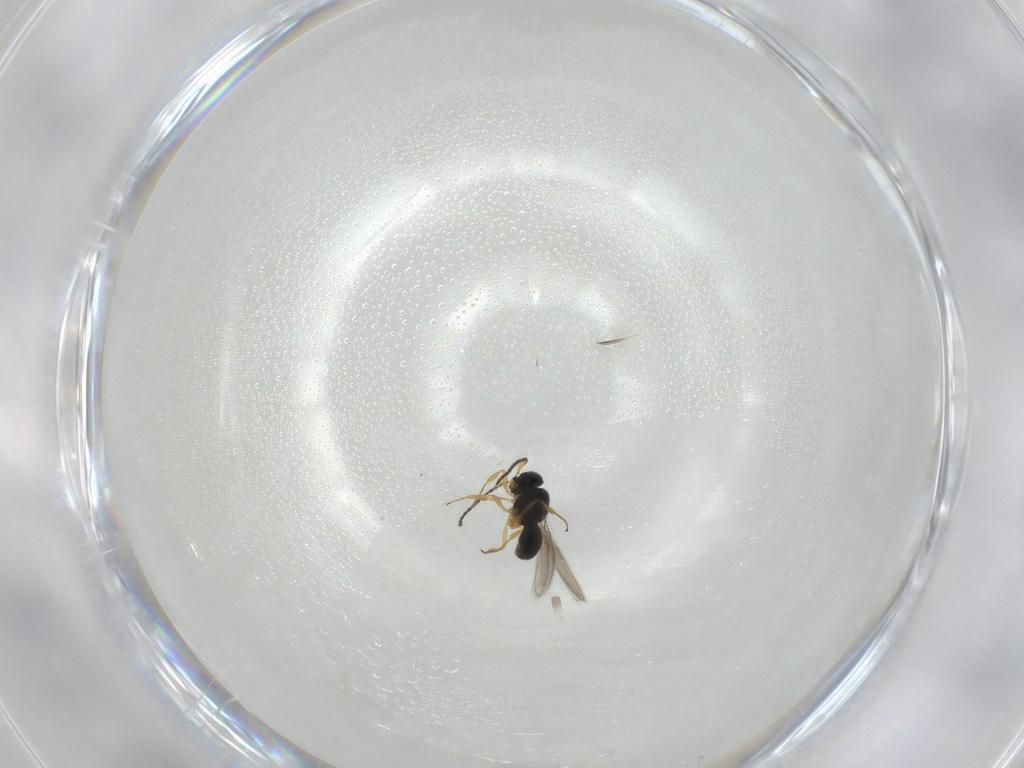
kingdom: Animalia
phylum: Arthropoda
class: Insecta
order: Hymenoptera
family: Scelionidae
